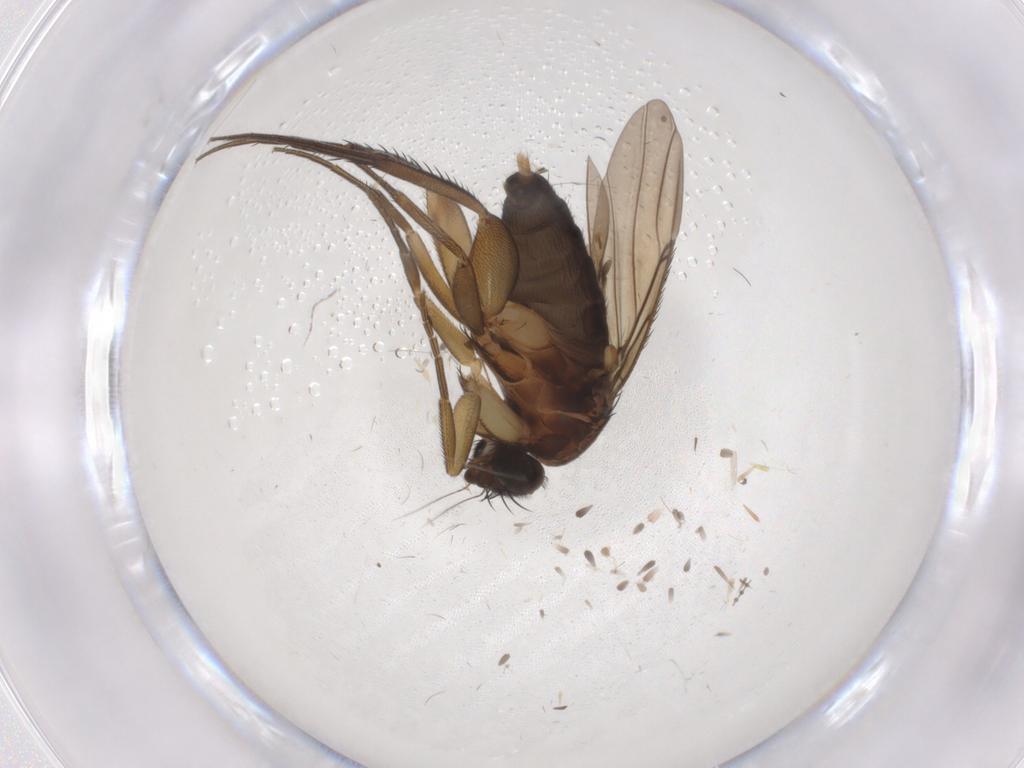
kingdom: Animalia
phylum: Arthropoda
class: Insecta
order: Diptera
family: Phoridae
